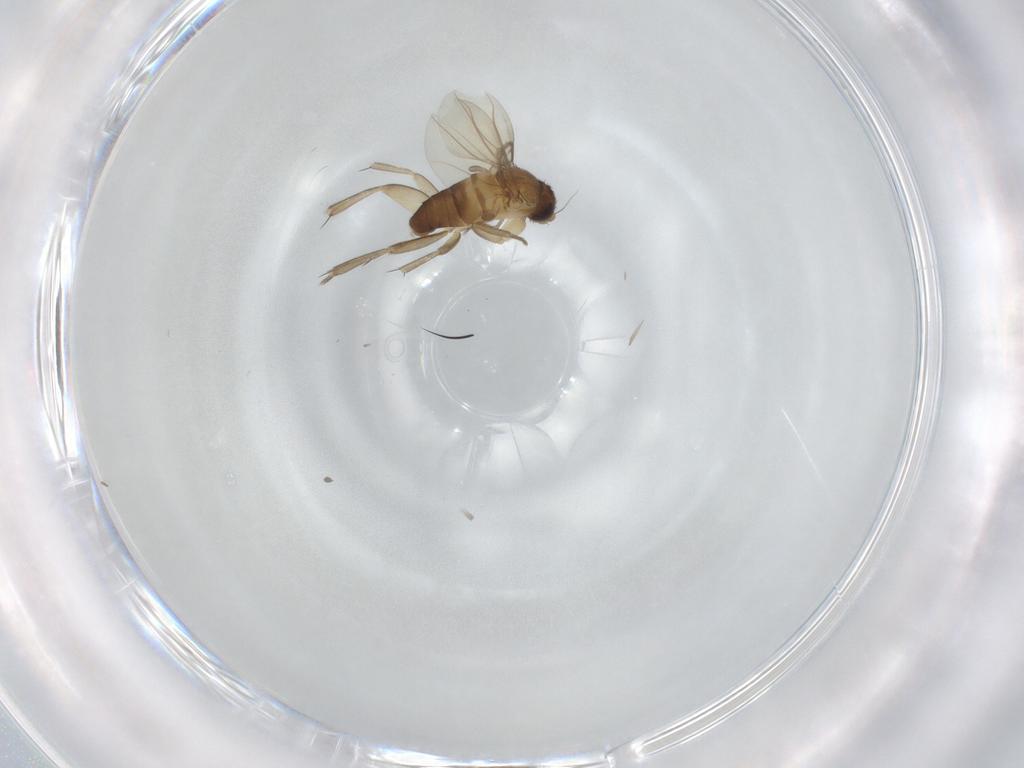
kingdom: Animalia
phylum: Arthropoda
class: Insecta
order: Diptera
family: Phoridae
